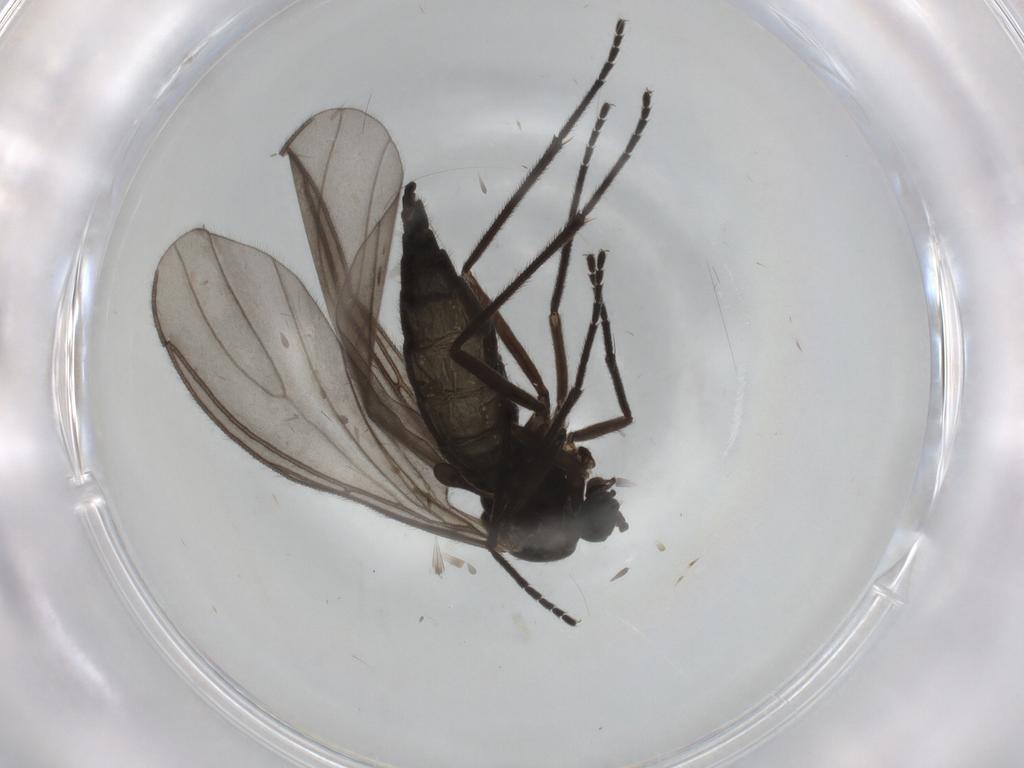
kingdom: Animalia
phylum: Arthropoda
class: Insecta
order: Diptera
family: Sciaridae
